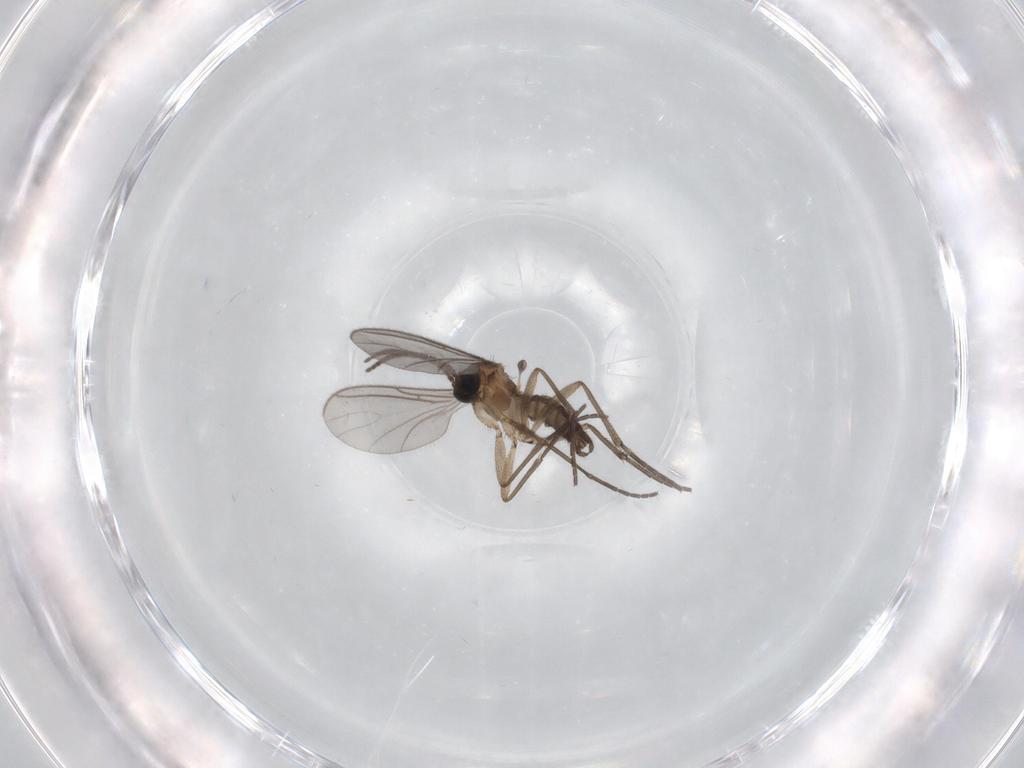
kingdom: Animalia
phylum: Arthropoda
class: Insecta
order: Diptera
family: Sciaridae
